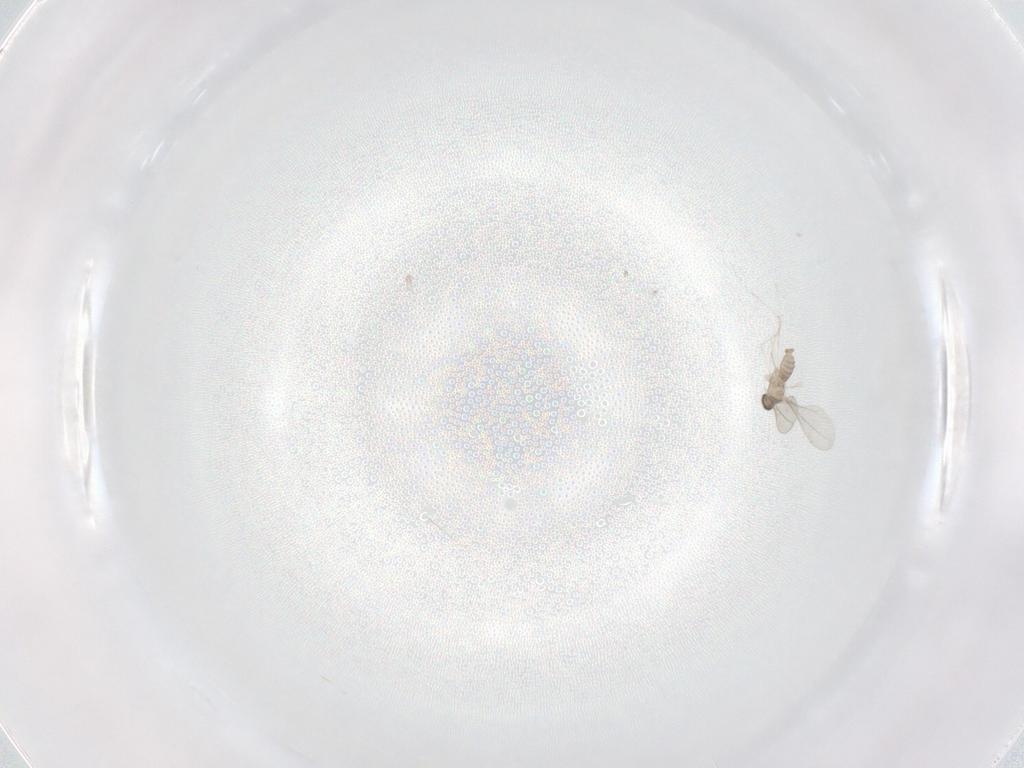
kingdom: Animalia
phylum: Arthropoda
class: Insecta
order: Diptera
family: Cecidomyiidae
